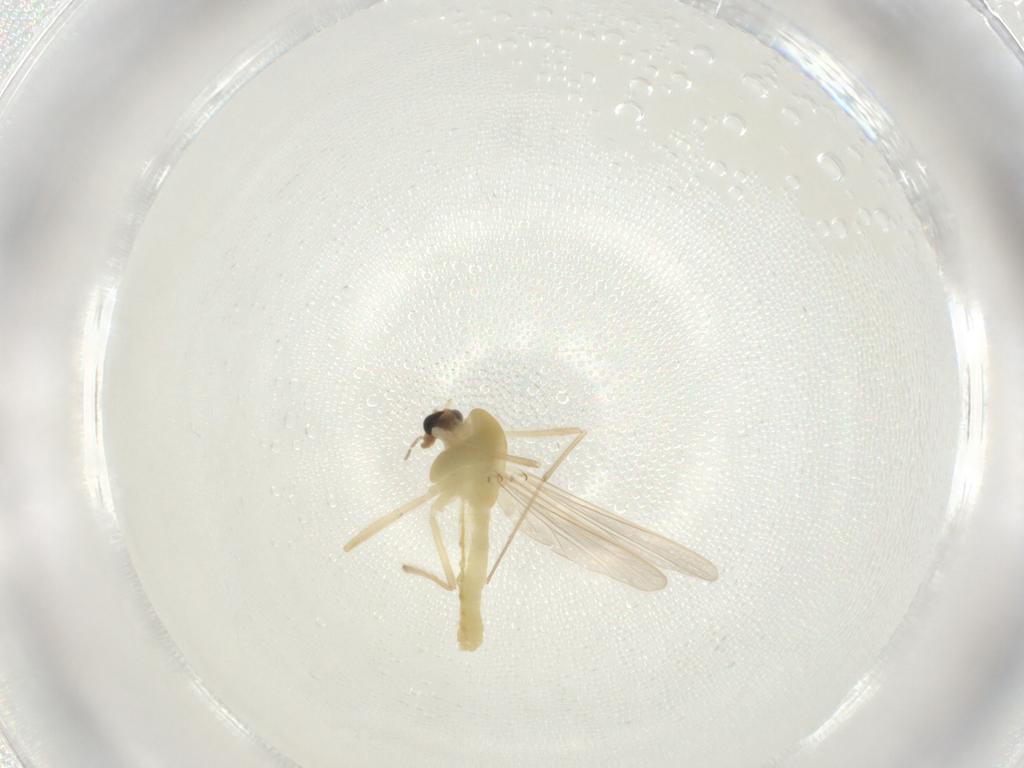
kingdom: Animalia
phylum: Arthropoda
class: Insecta
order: Diptera
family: Chironomidae
